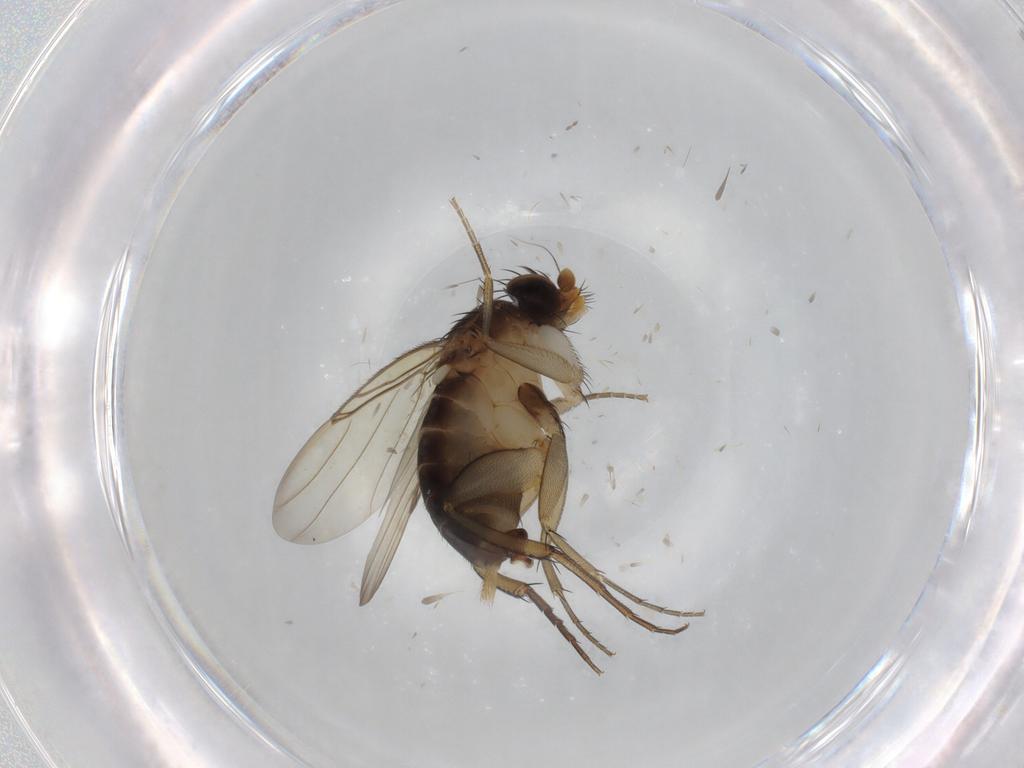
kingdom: Animalia
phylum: Arthropoda
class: Insecta
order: Diptera
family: Phoridae
